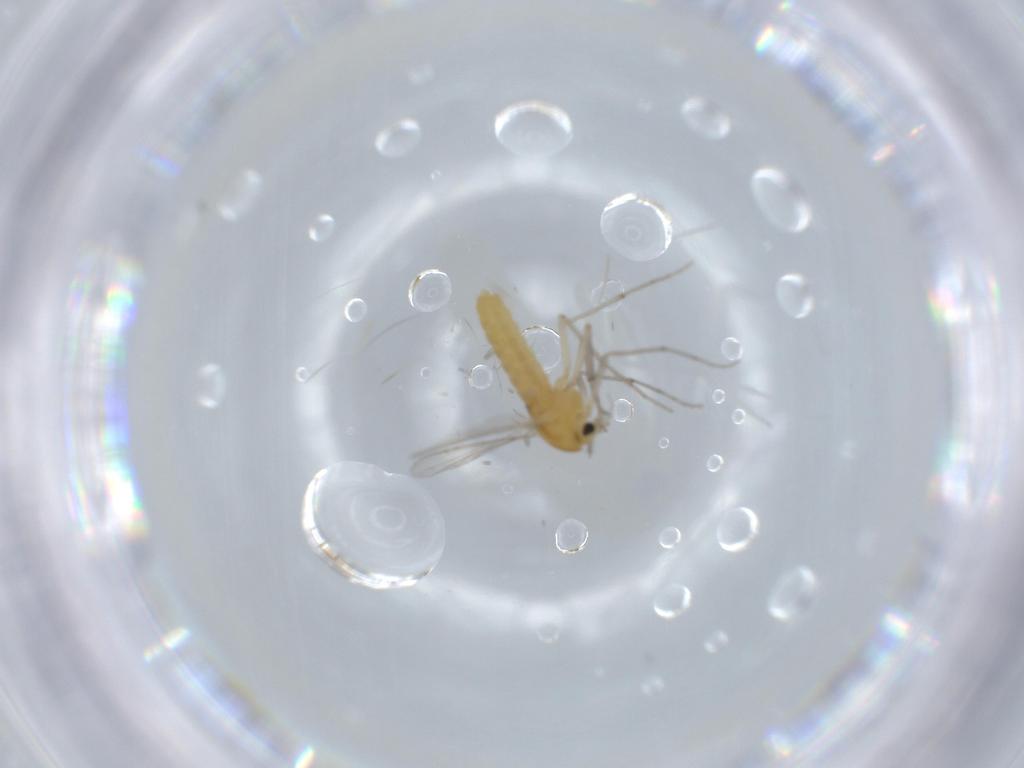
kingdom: Animalia
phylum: Arthropoda
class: Insecta
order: Diptera
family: Chironomidae
